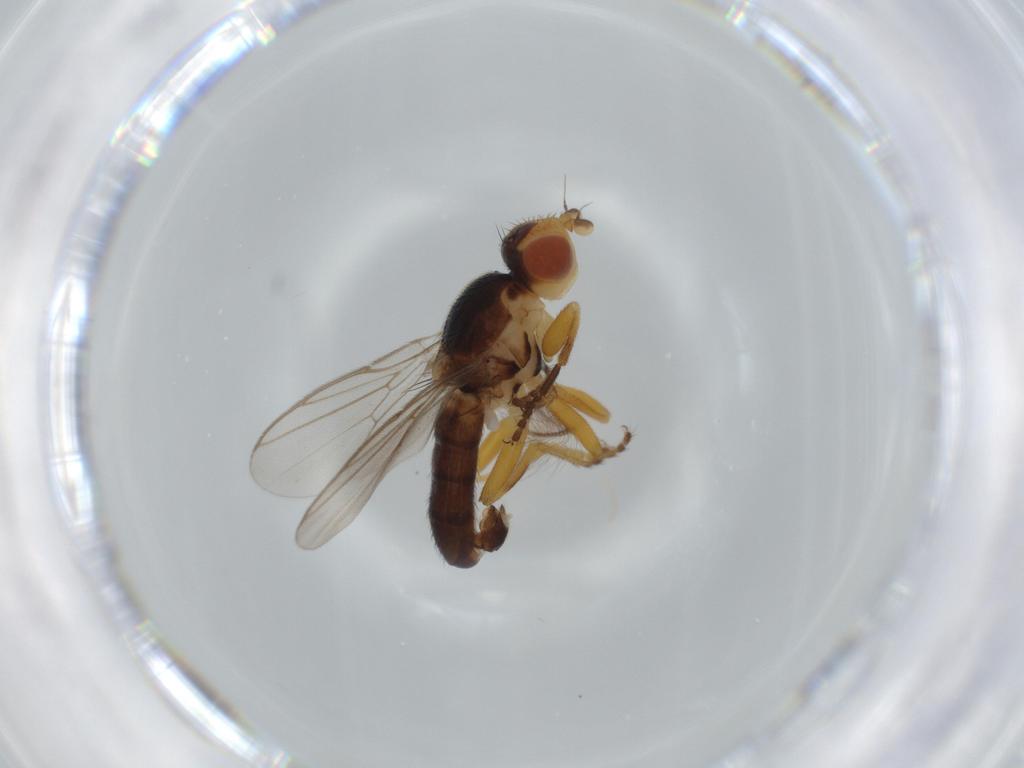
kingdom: Animalia
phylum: Arthropoda
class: Insecta
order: Diptera
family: Chloropidae
